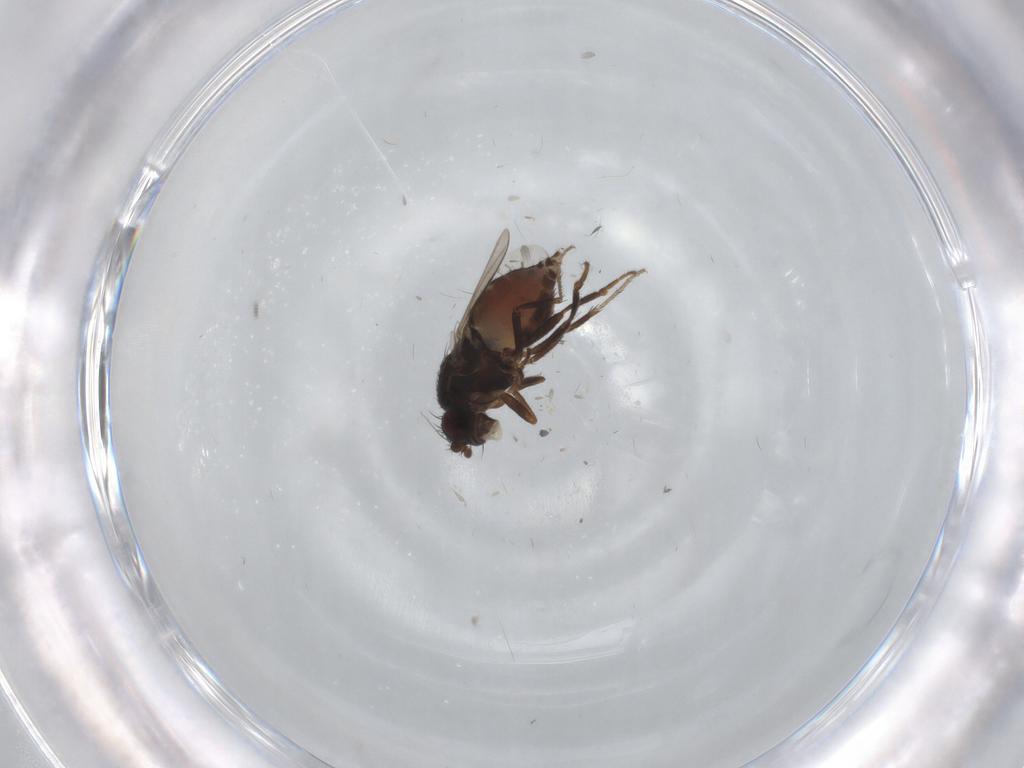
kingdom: Animalia
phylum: Arthropoda
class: Insecta
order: Diptera
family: Sphaeroceridae
